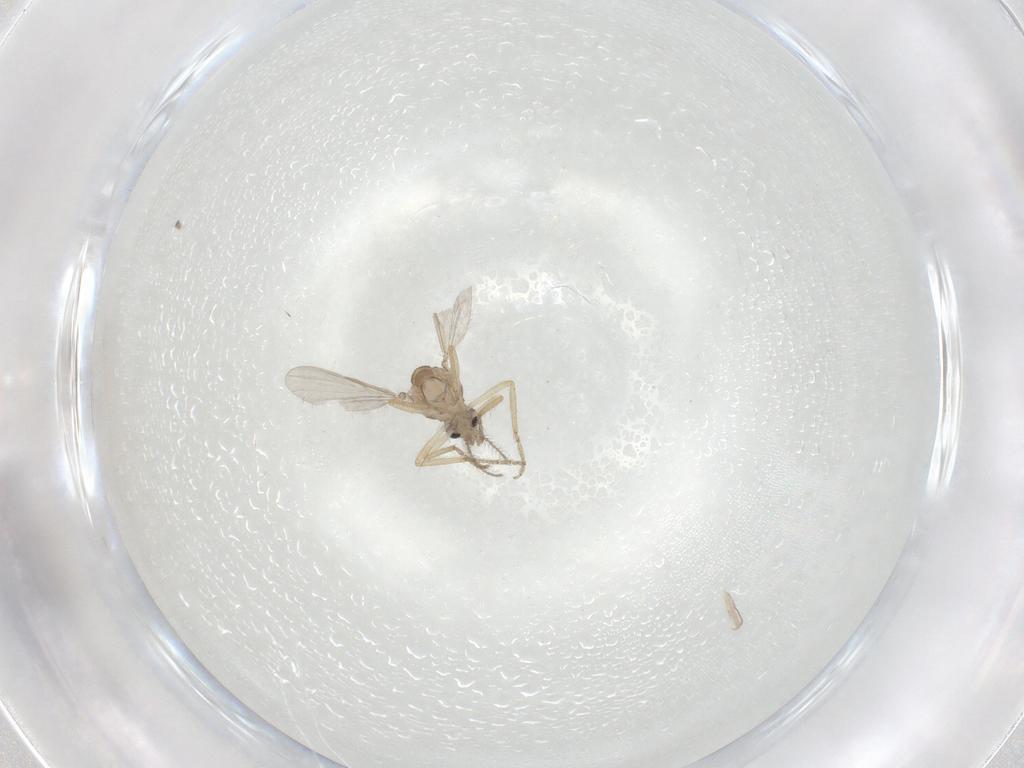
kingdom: Animalia
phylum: Arthropoda
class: Insecta
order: Diptera
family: Ceratopogonidae
